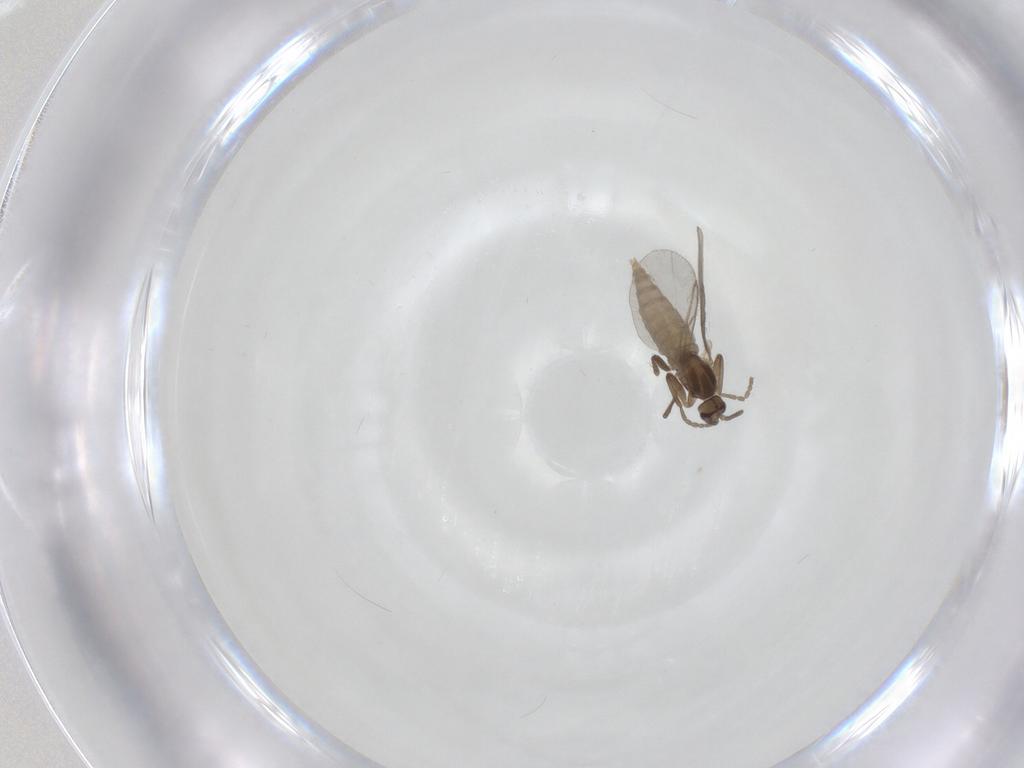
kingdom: Animalia
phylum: Arthropoda
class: Insecta
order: Diptera
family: Cecidomyiidae
